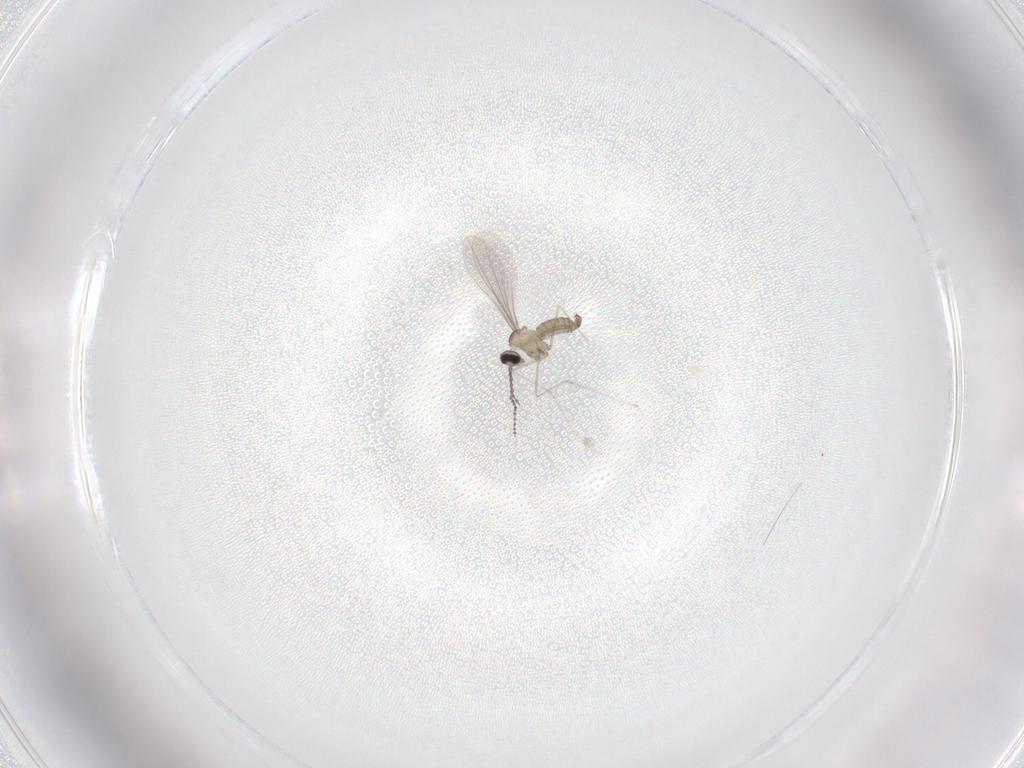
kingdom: Animalia
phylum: Arthropoda
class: Insecta
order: Diptera
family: Cecidomyiidae
